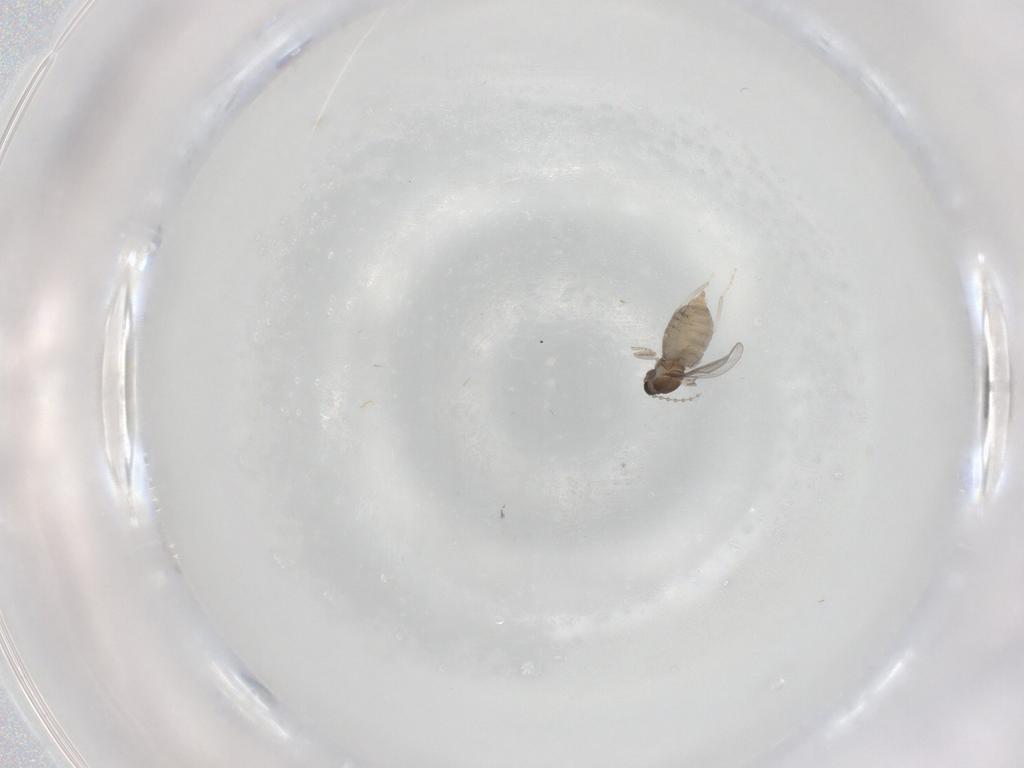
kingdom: Animalia
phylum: Arthropoda
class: Insecta
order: Diptera
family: Cecidomyiidae
